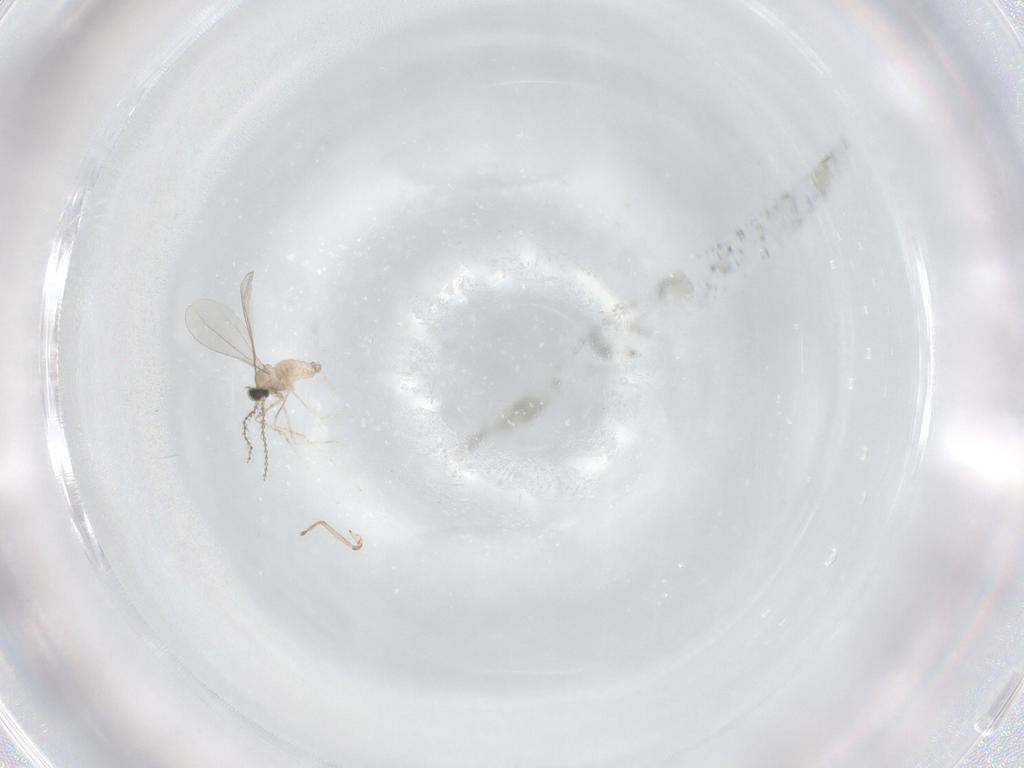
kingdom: Animalia
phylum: Arthropoda
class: Insecta
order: Diptera
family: Cecidomyiidae
